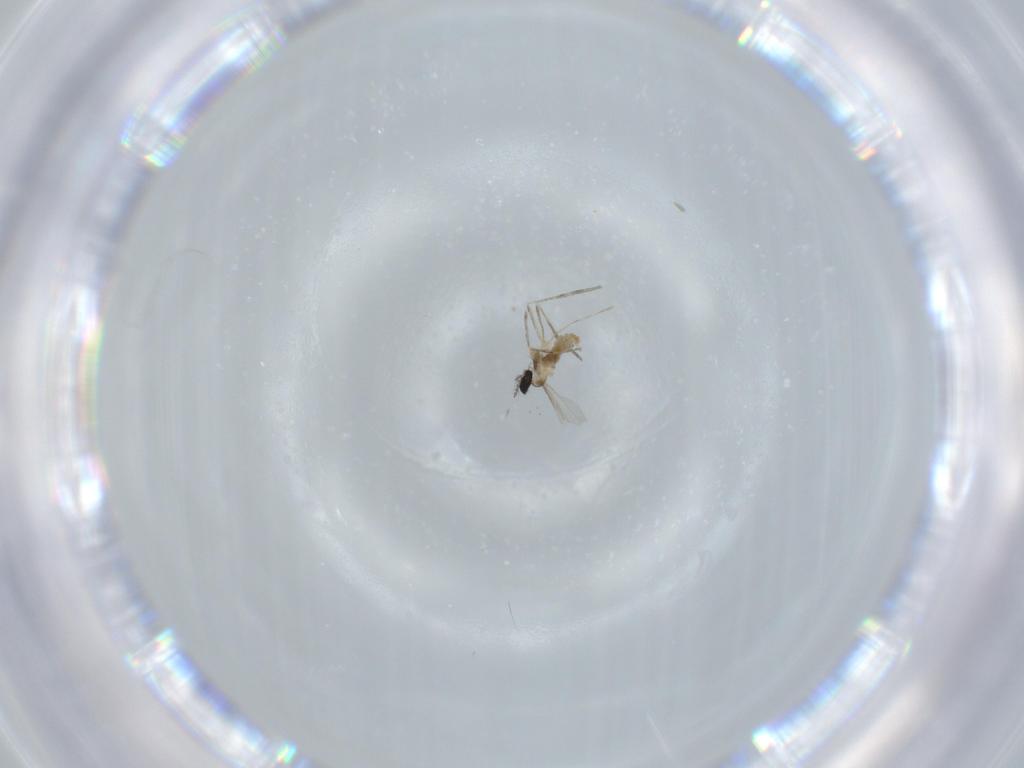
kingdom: Animalia
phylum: Arthropoda
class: Insecta
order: Diptera
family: Cecidomyiidae
